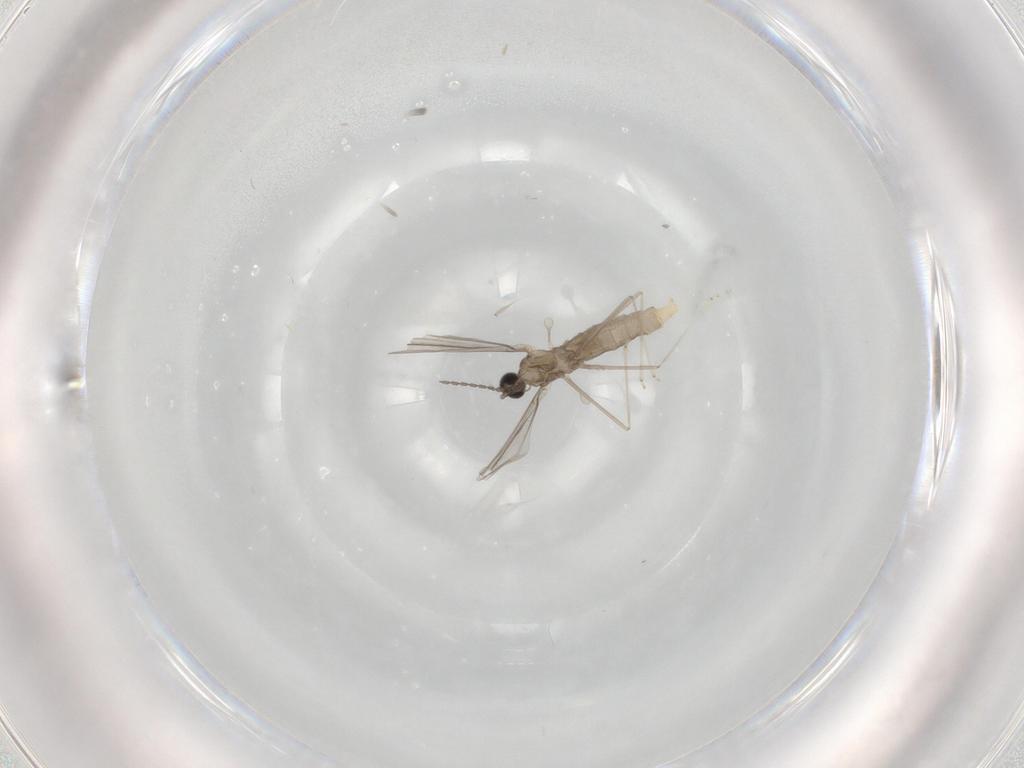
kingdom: Animalia
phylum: Arthropoda
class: Insecta
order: Diptera
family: Cecidomyiidae
